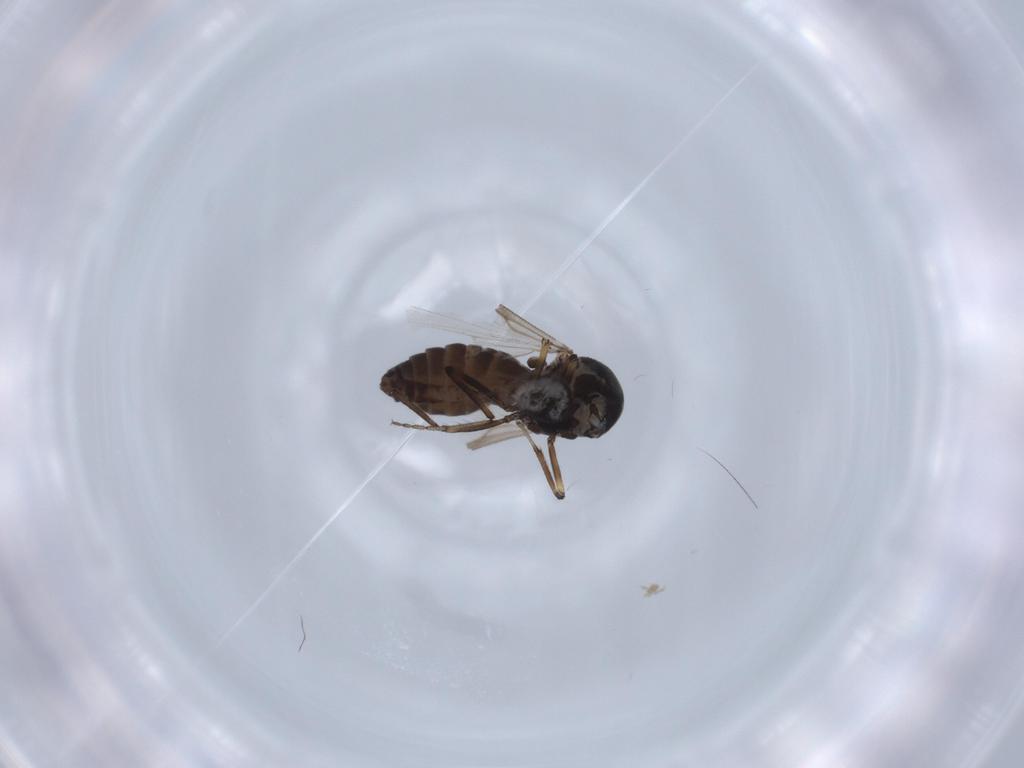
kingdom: Animalia
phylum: Arthropoda
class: Insecta
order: Diptera
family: Ceratopogonidae
